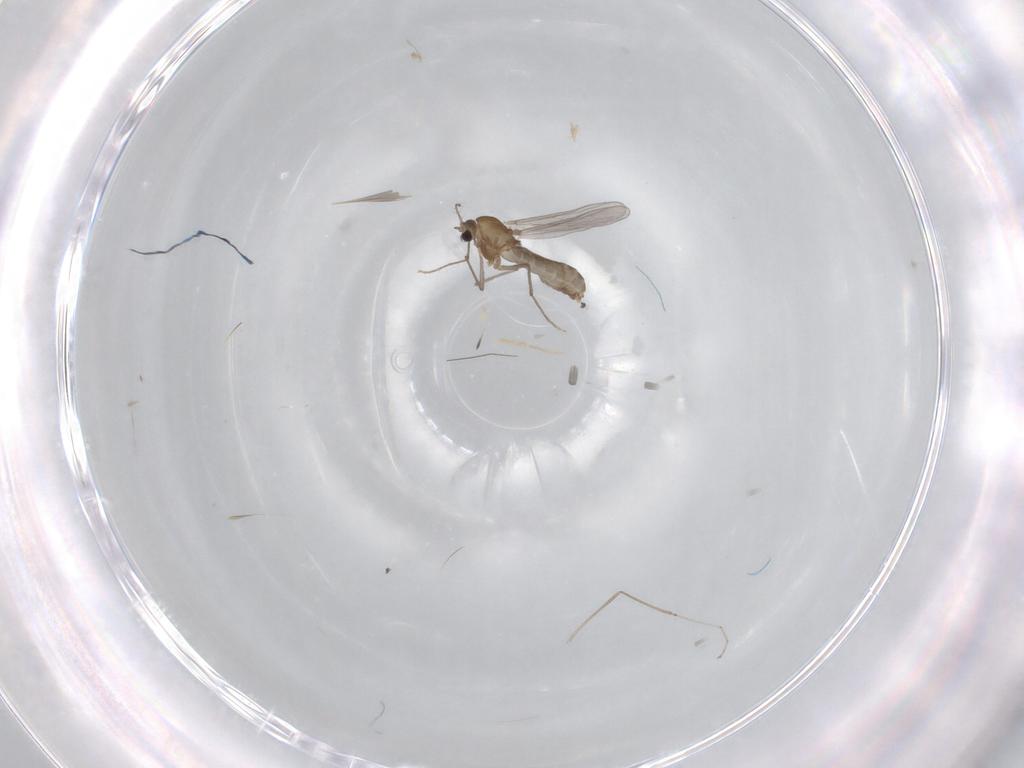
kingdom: Animalia
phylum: Arthropoda
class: Insecta
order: Diptera
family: Chironomidae
